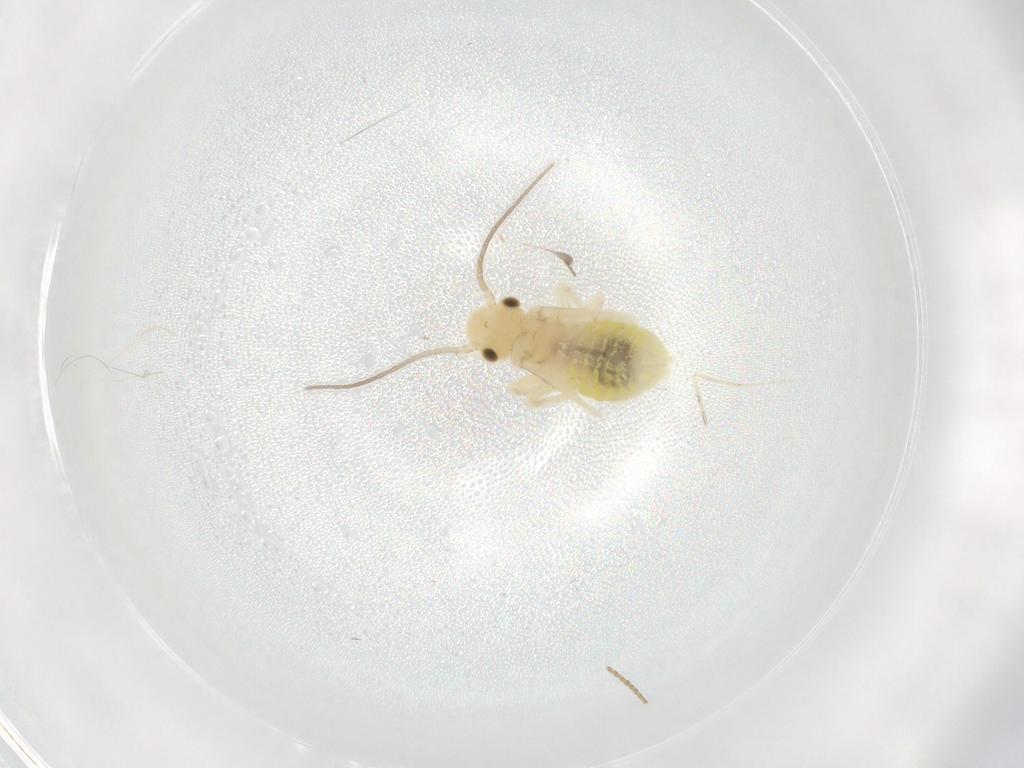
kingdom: Animalia
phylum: Arthropoda
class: Insecta
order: Psocodea
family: Caeciliusidae
